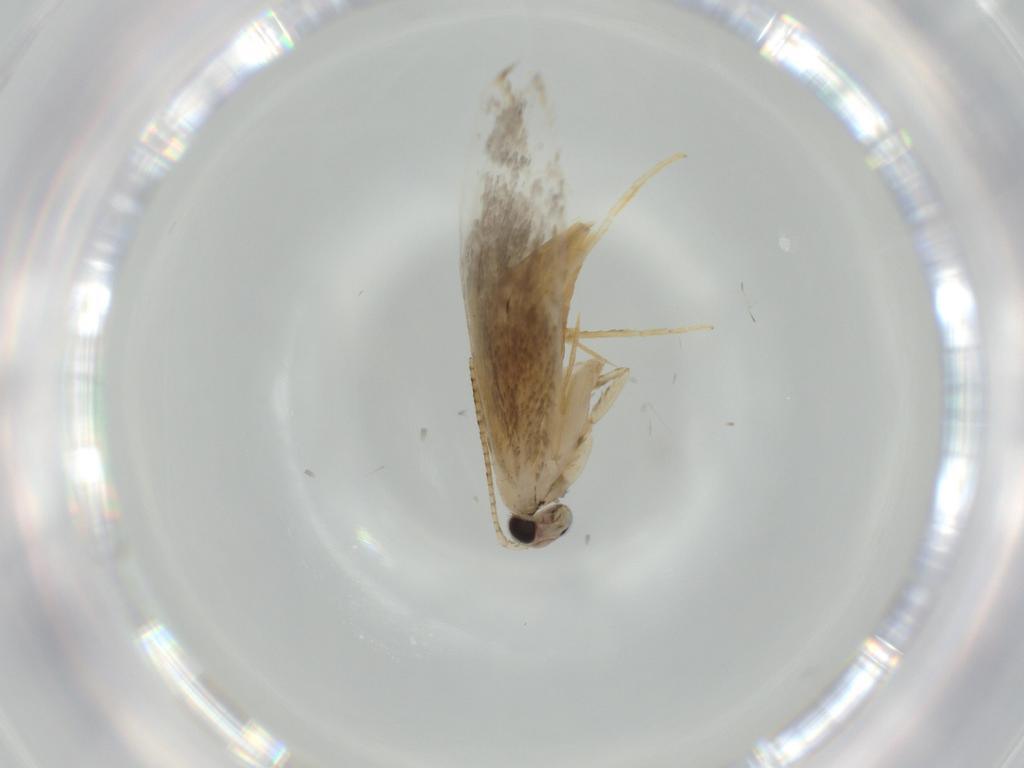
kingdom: Animalia
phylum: Arthropoda
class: Insecta
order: Lepidoptera
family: Tineidae
